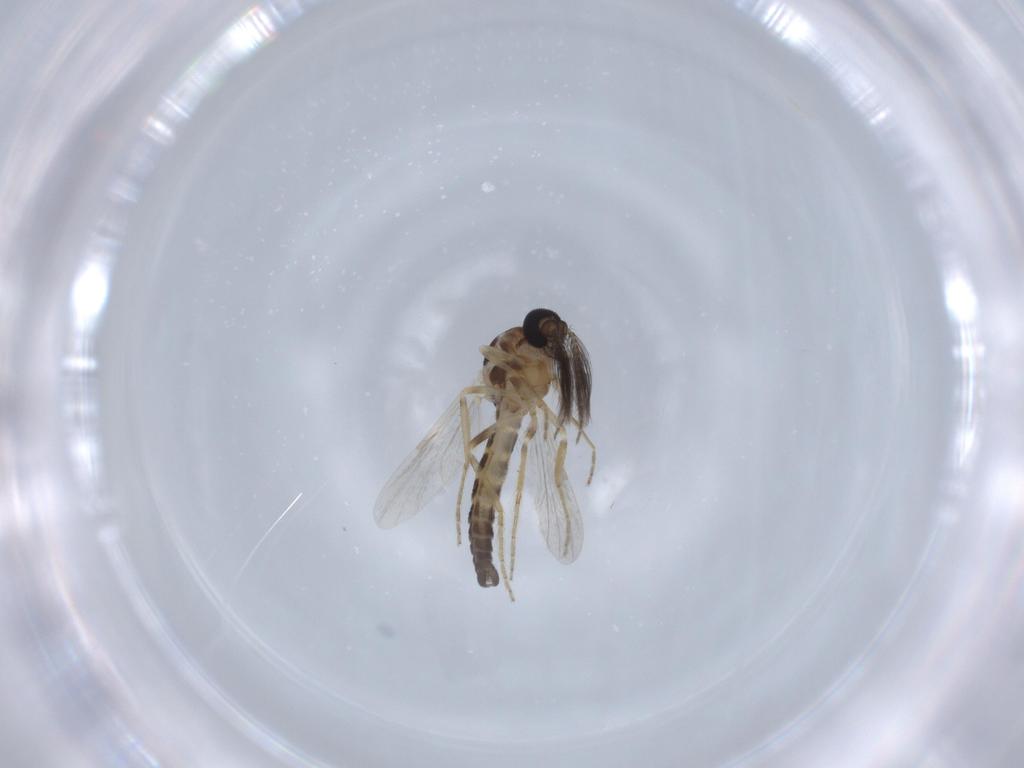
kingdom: Animalia
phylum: Arthropoda
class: Insecta
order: Diptera
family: Ceratopogonidae
